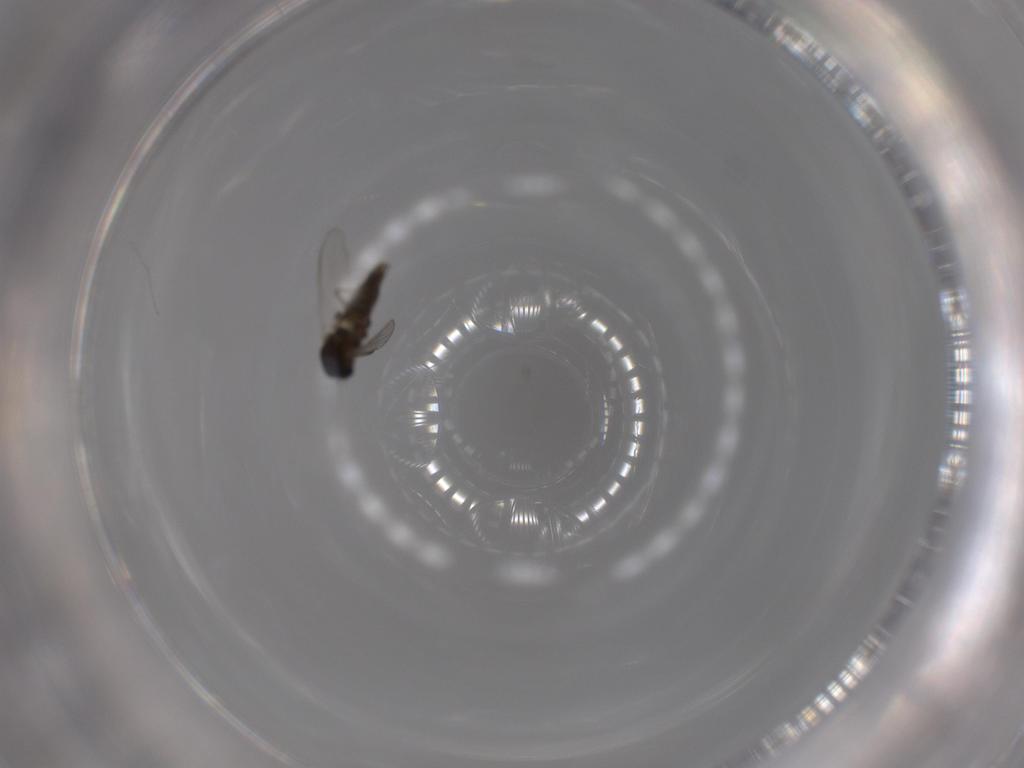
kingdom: Animalia
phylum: Arthropoda
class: Insecta
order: Diptera
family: Chironomidae
